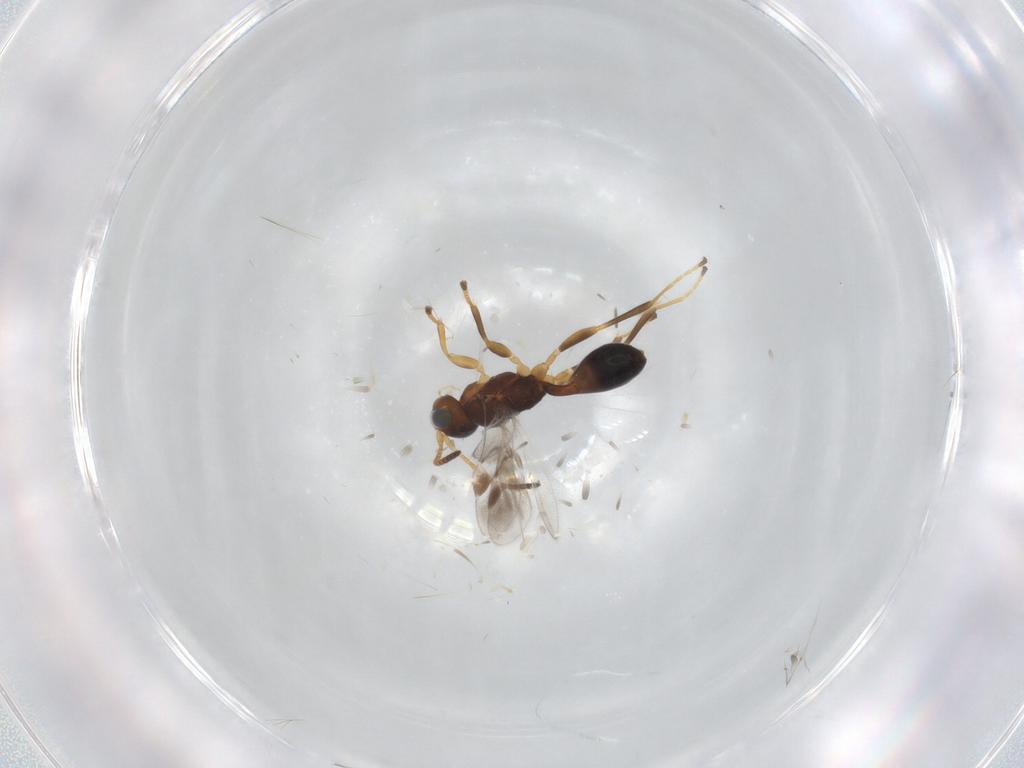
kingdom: Animalia
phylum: Arthropoda
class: Insecta
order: Hymenoptera
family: Braconidae
